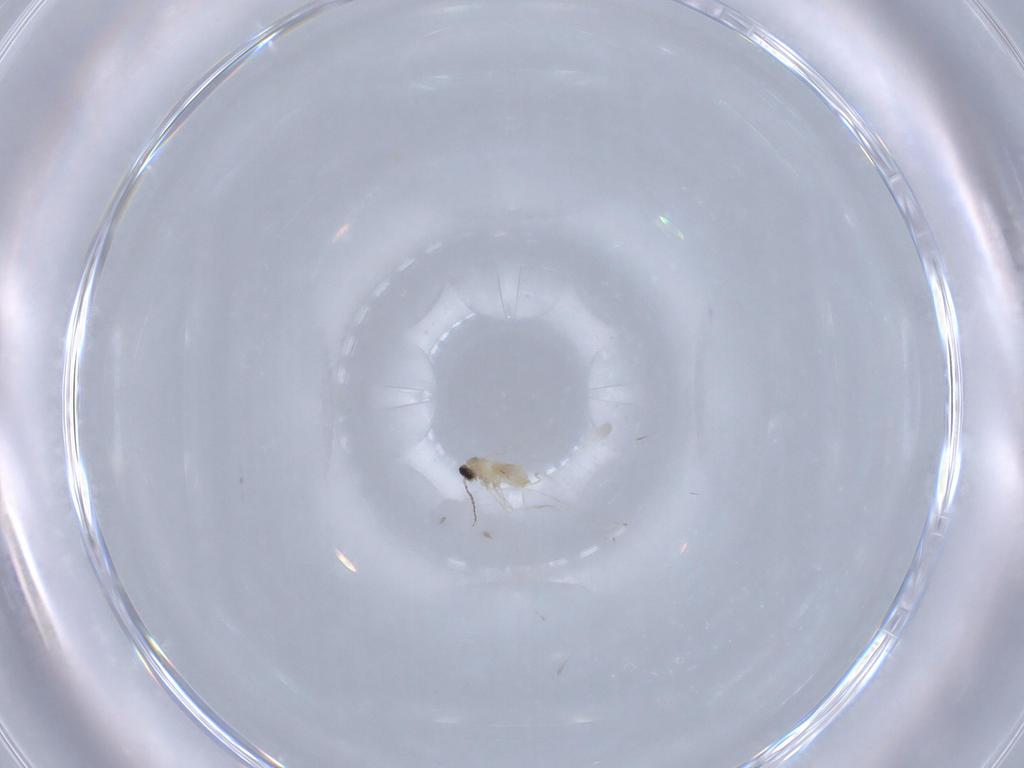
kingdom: Animalia
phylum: Arthropoda
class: Insecta
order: Diptera
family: Cecidomyiidae
